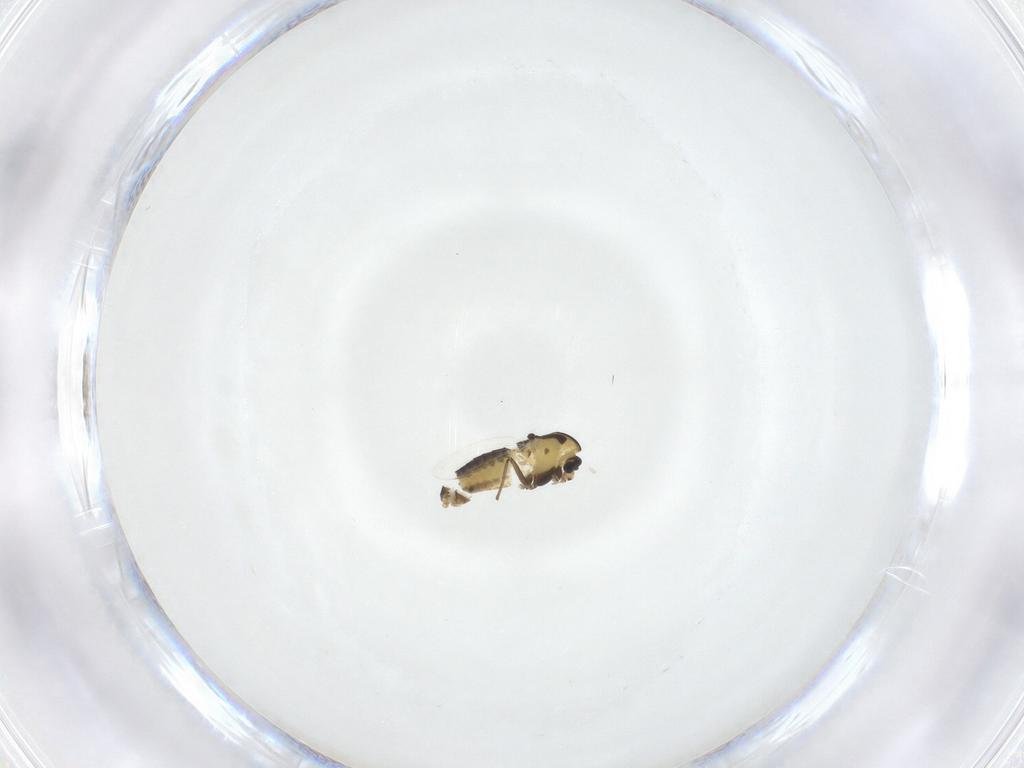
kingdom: Animalia
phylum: Arthropoda
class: Insecta
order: Diptera
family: Chironomidae
